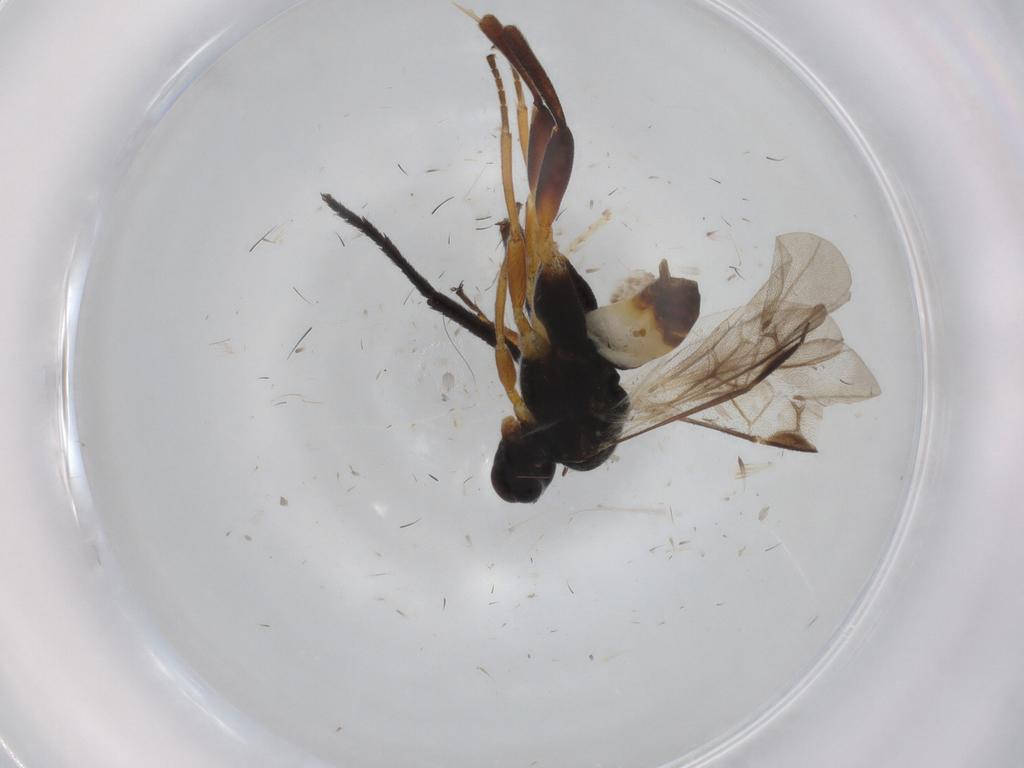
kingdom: Animalia
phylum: Arthropoda
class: Insecta
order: Hymenoptera
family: Braconidae
